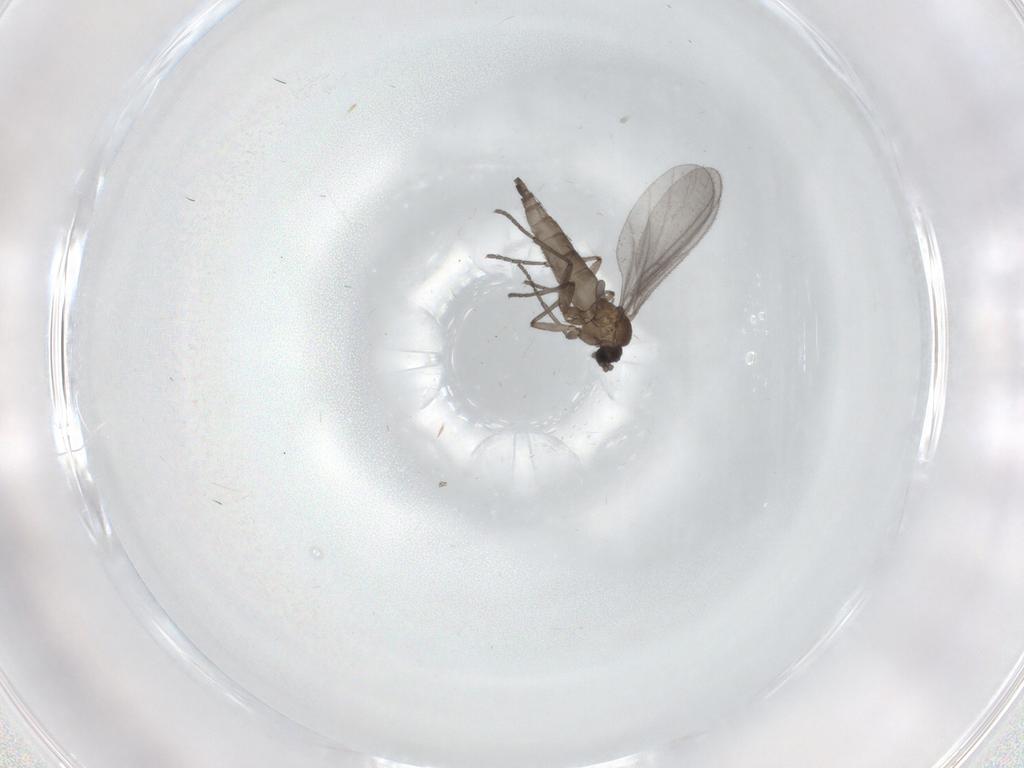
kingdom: Animalia
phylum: Arthropoda
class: Insecta
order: Diptera
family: Sciaridae
